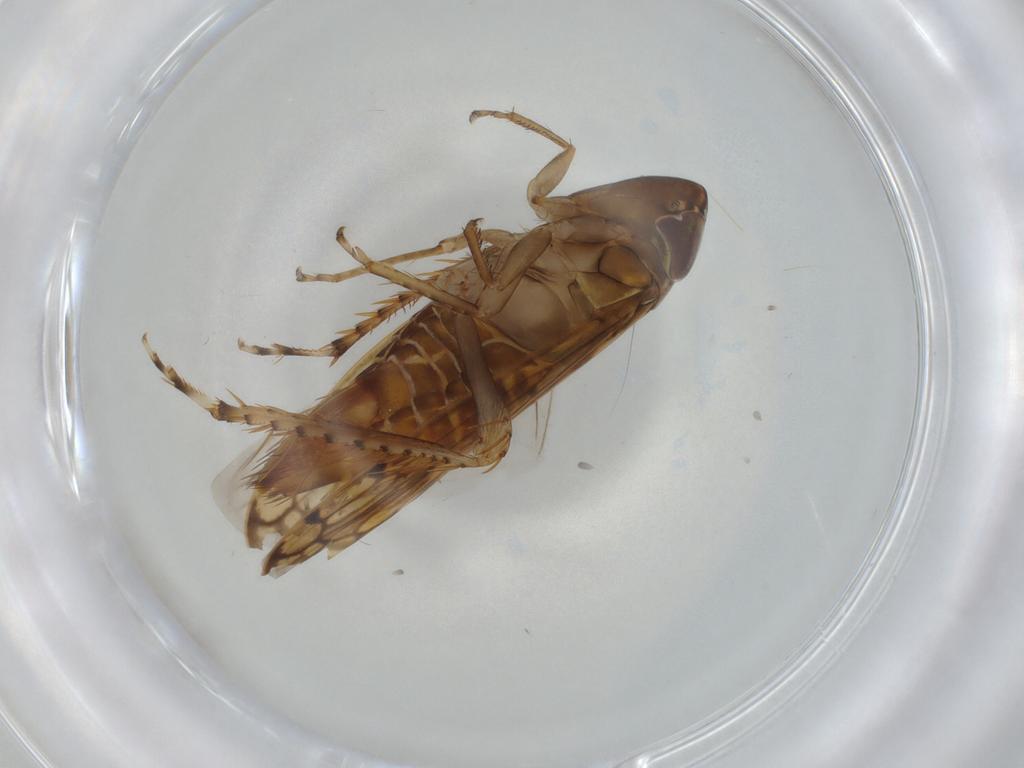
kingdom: Animalia
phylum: Arthropoda
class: Insecta
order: Hemiptera
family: Cicadellidae
